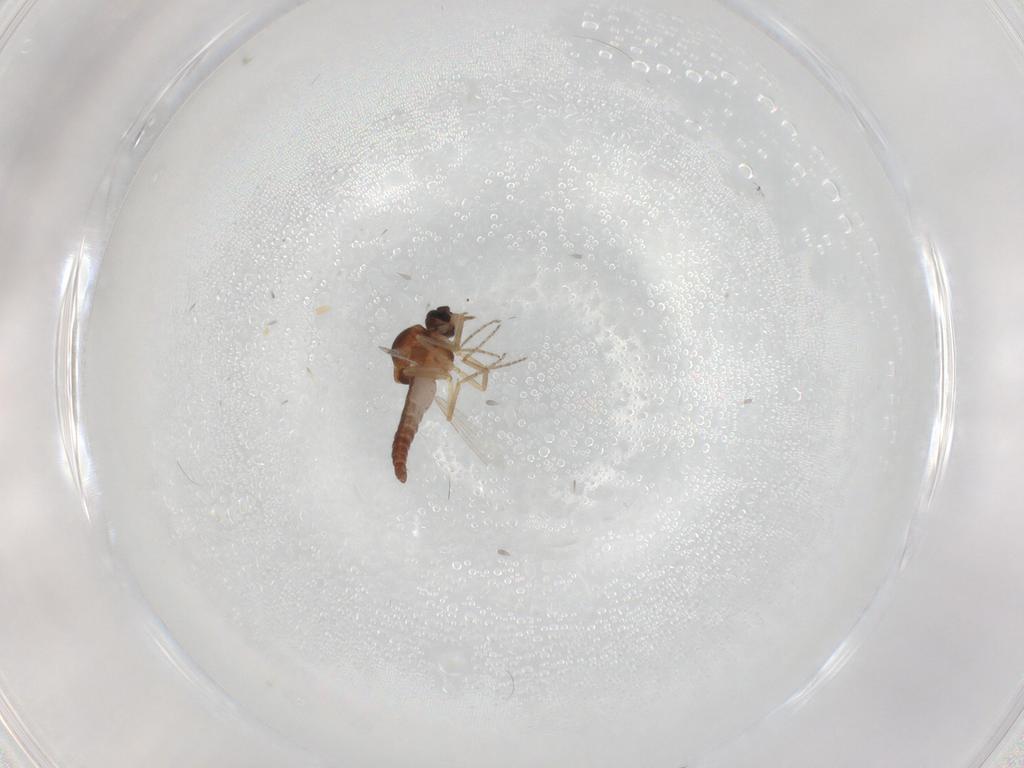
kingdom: Animalia
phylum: Arthropoda
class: Insecta
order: Diptera
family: Ceratopogonidae
